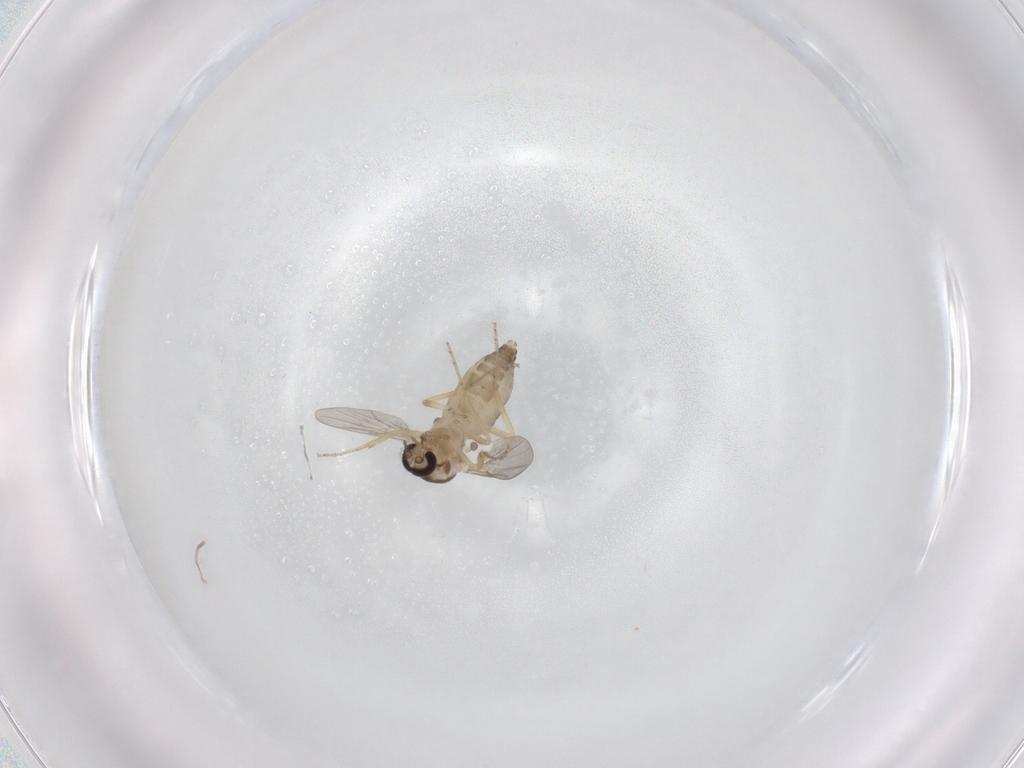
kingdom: Animalia
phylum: Arthropoda
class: Insecta
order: Diptera
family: Ceratopogonidae
